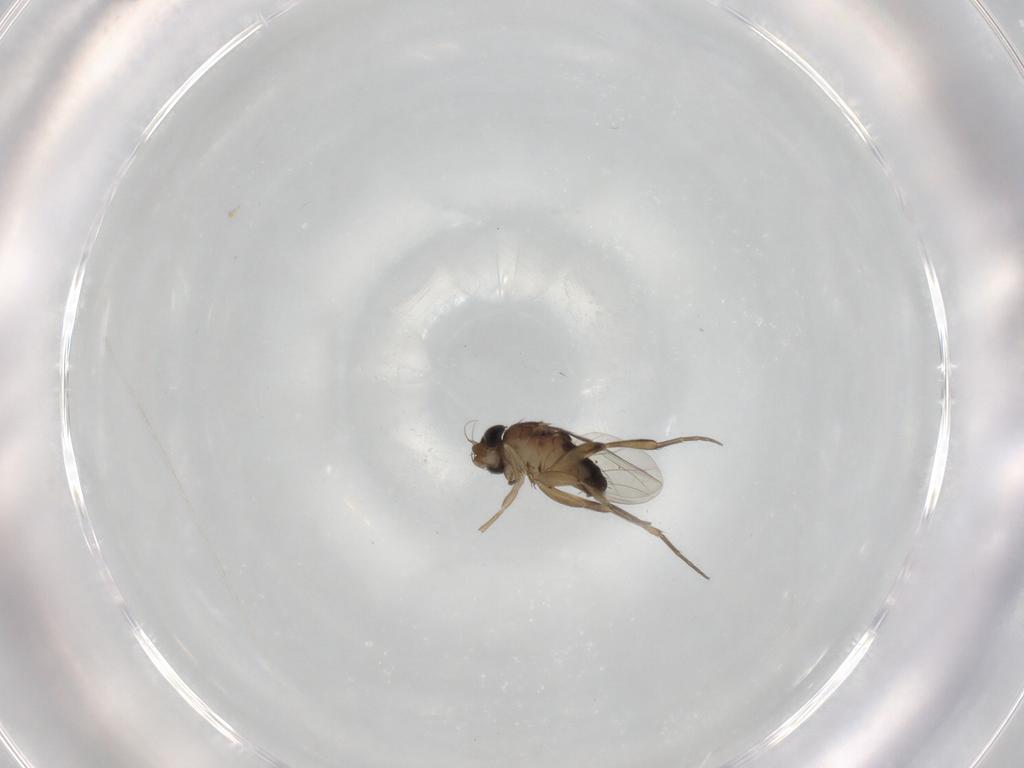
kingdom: Animalia
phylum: Arthropoda
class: Insecta
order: Diptera
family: Phoridae
